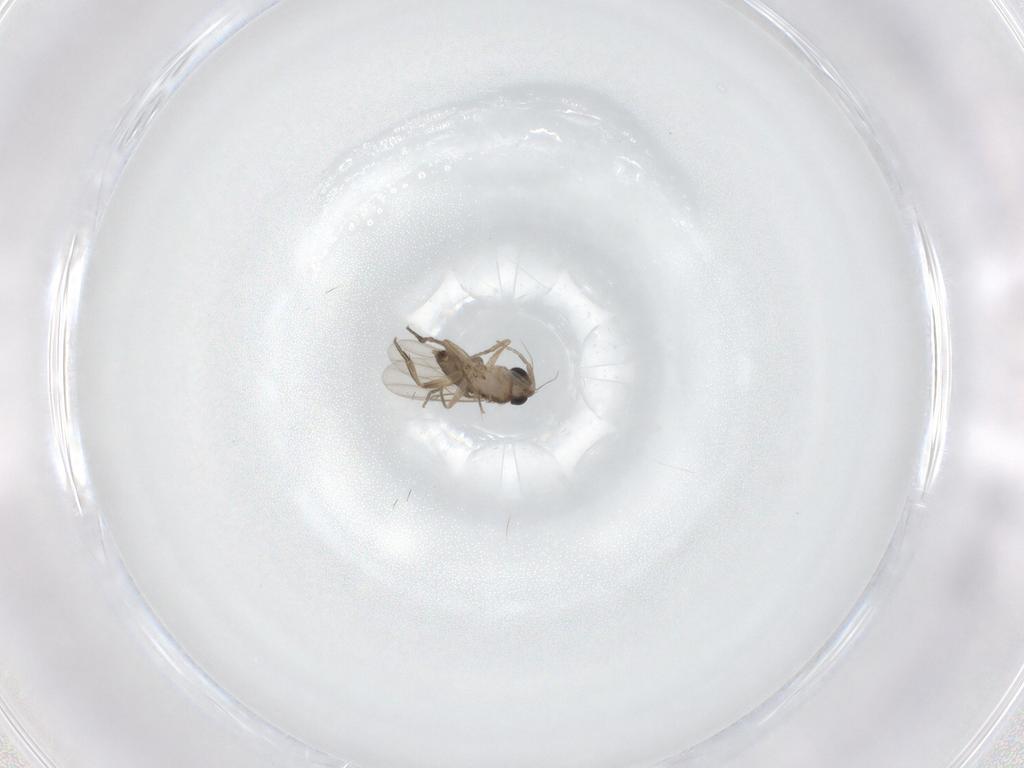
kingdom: Animalia
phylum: Arthropoda
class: Insecta
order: Diptera
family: Phoridae
